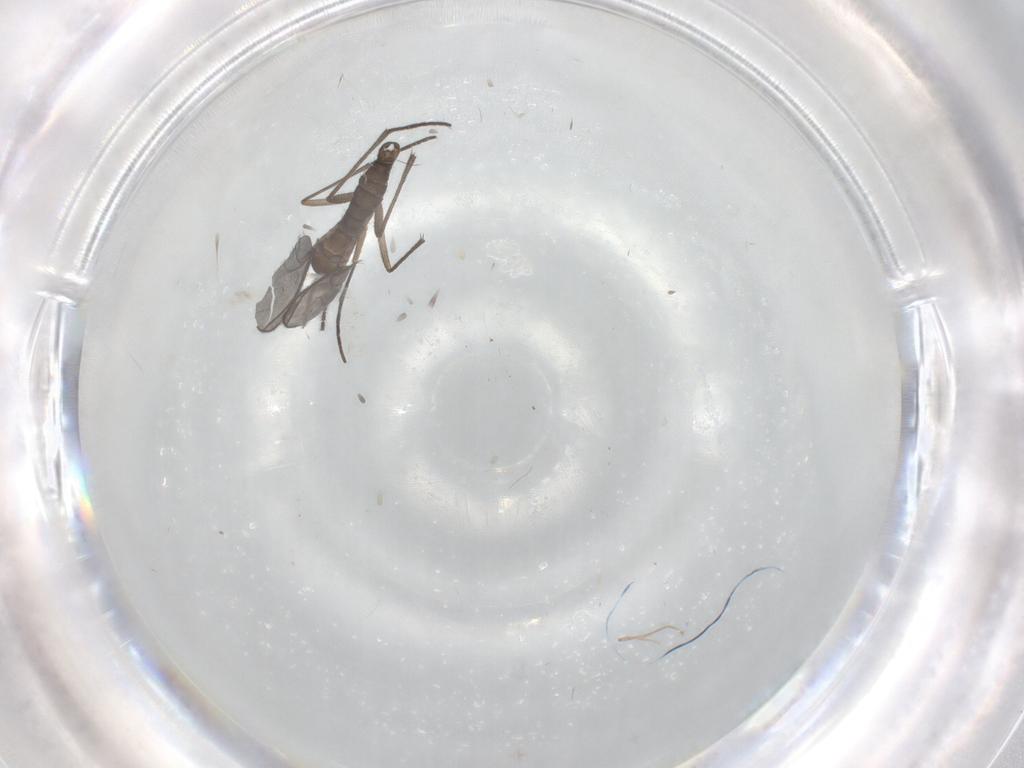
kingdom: Animalia
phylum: Arthropoda
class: Insecta
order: Diptera
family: Sciaridae
